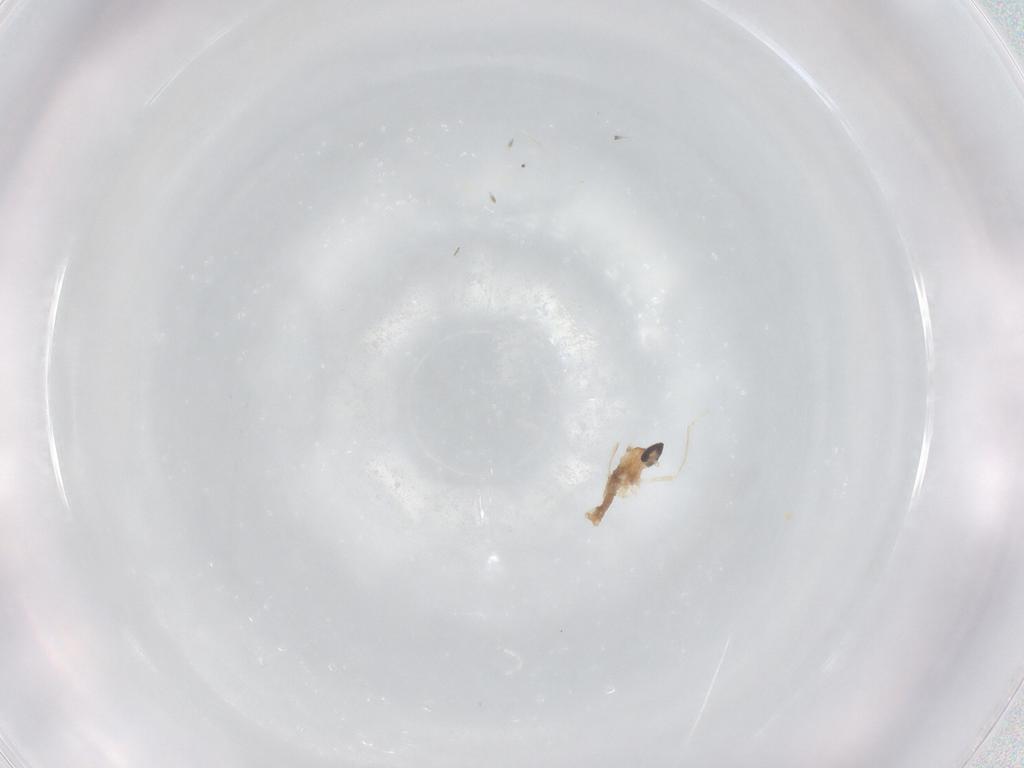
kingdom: Animalia
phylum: Arthropoda
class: Insecta
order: Diptera
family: Cecidomyiidae
